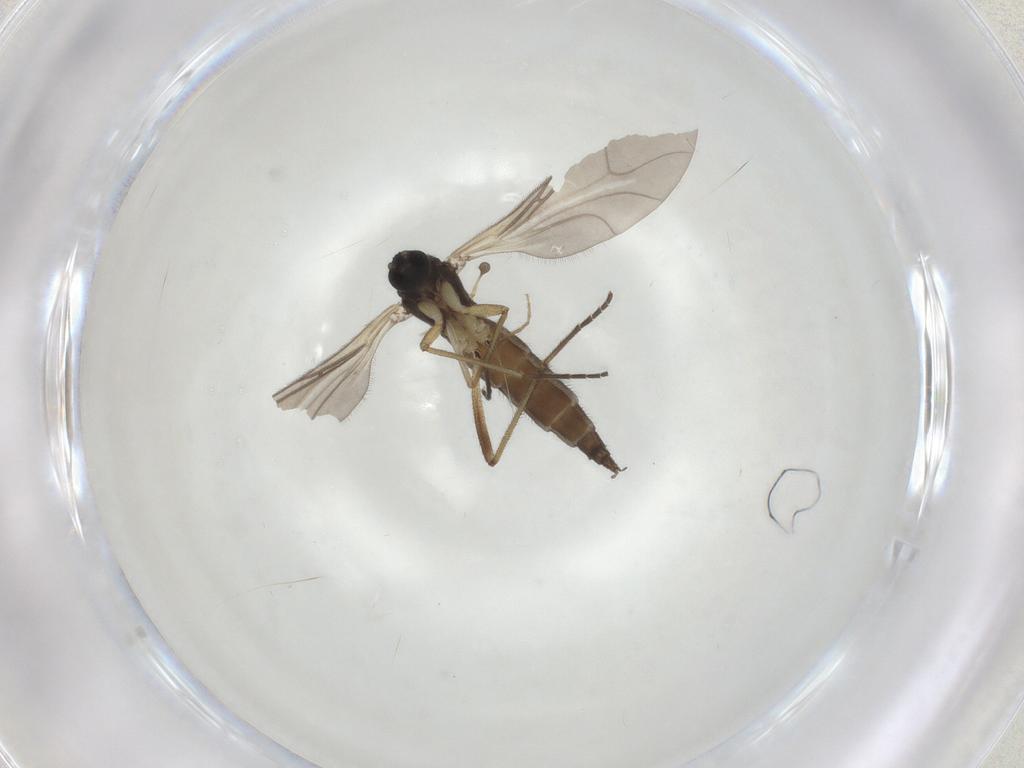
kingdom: Animalia
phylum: Arthropoda
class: Insecta
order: Diptera
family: Sciaridae
